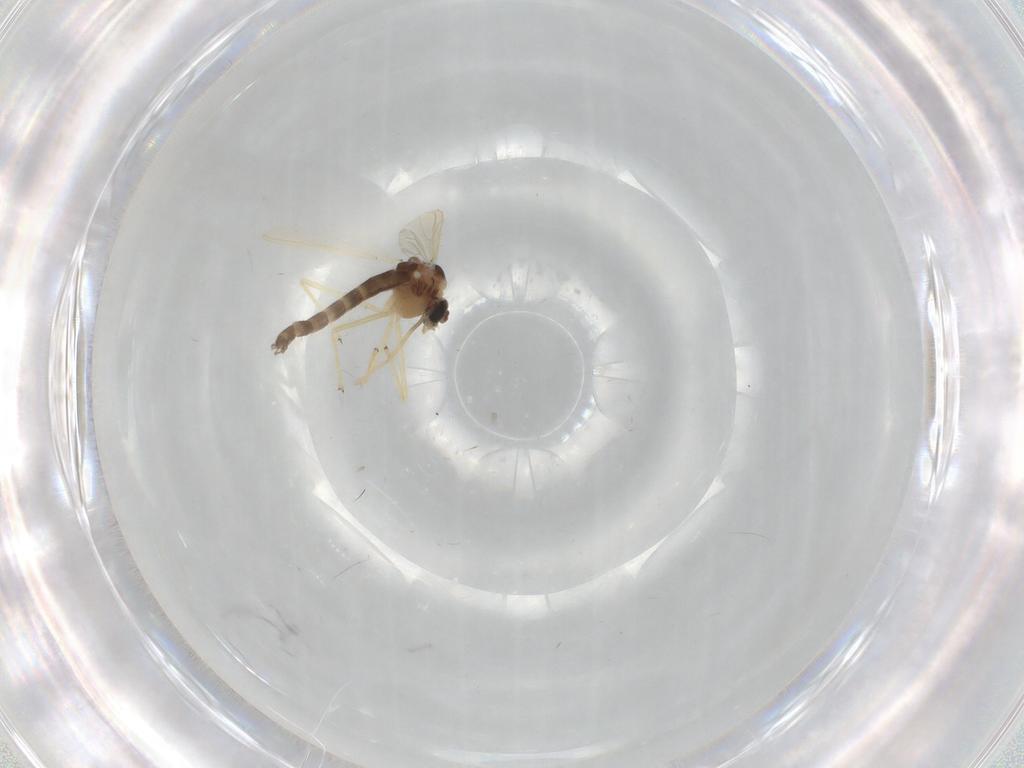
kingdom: Animalia
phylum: Arthropoda
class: Insecta
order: Diptera
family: Chironomidae
